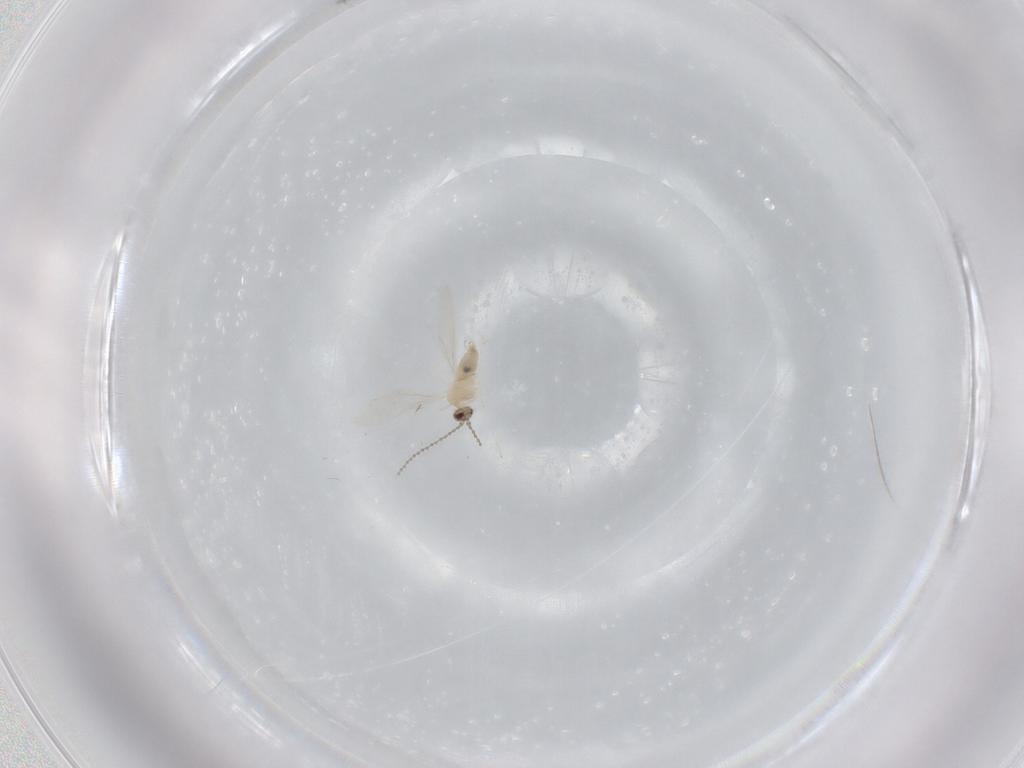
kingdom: Animalia
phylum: Arthropoda
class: Insecta
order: Diptera
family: Cecidomyiidae
